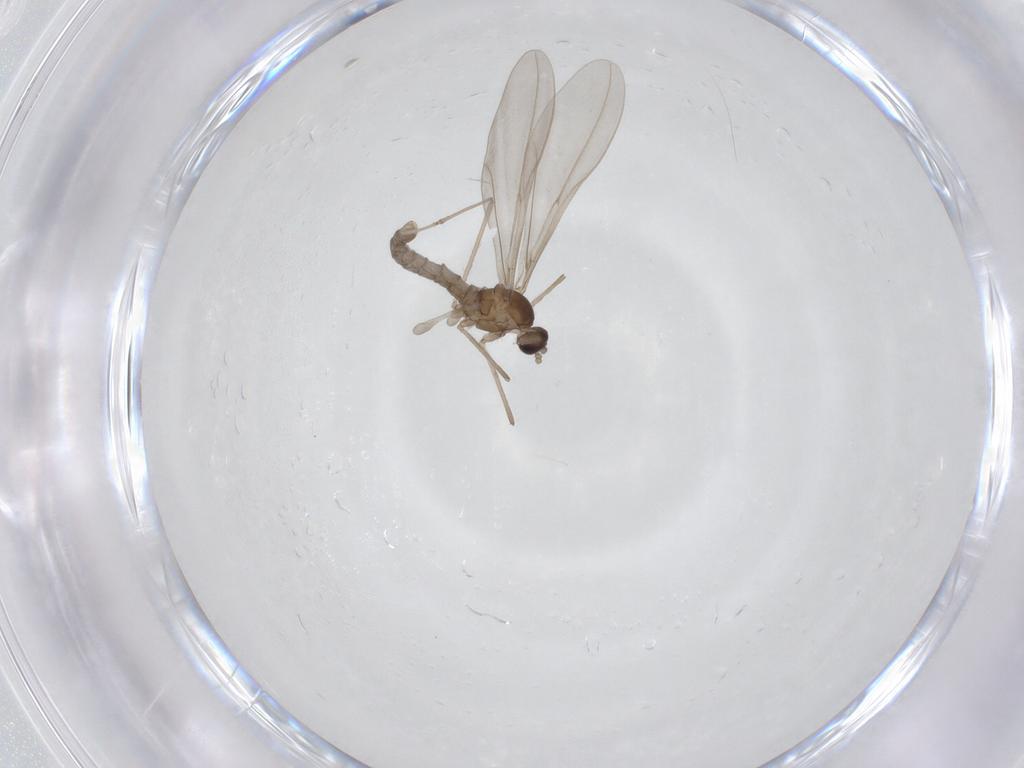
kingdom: Animalia
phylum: Arthropoda
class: Insecta
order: Diptera
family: Cecidomyiidae
